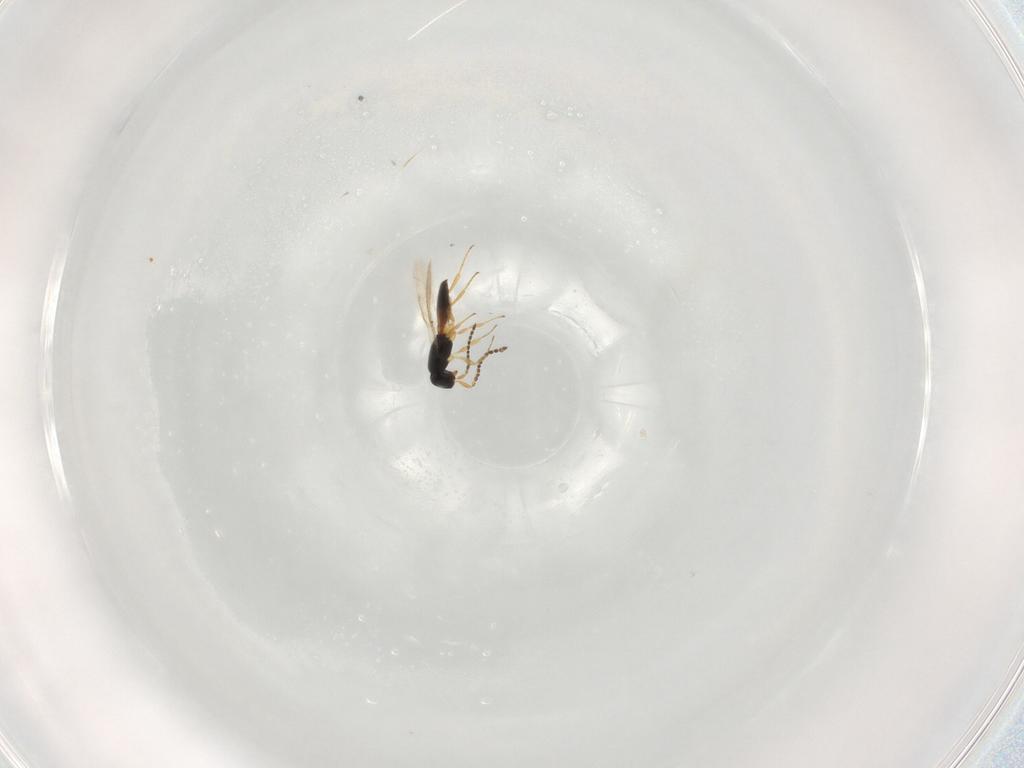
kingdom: Animalia
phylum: Arthropoda
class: Insecta
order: Hymenoptera
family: Scelionidae
